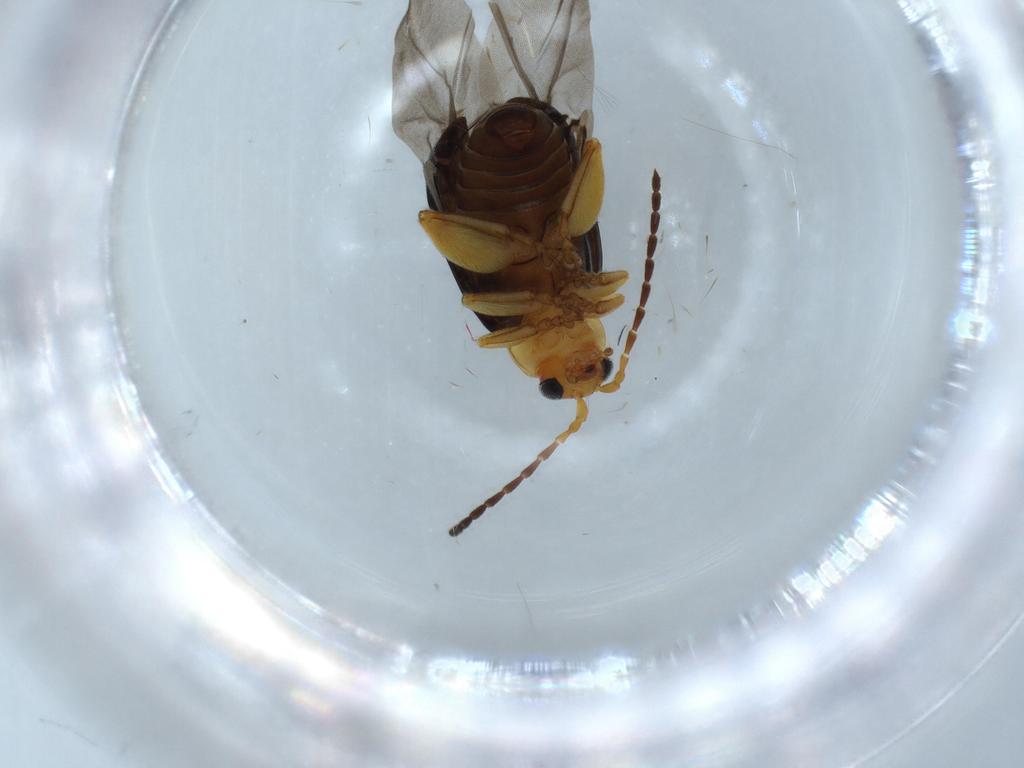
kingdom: Animalia
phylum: Arthropoda
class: Insecta
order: Coleoptera
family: Chrysomelidae
